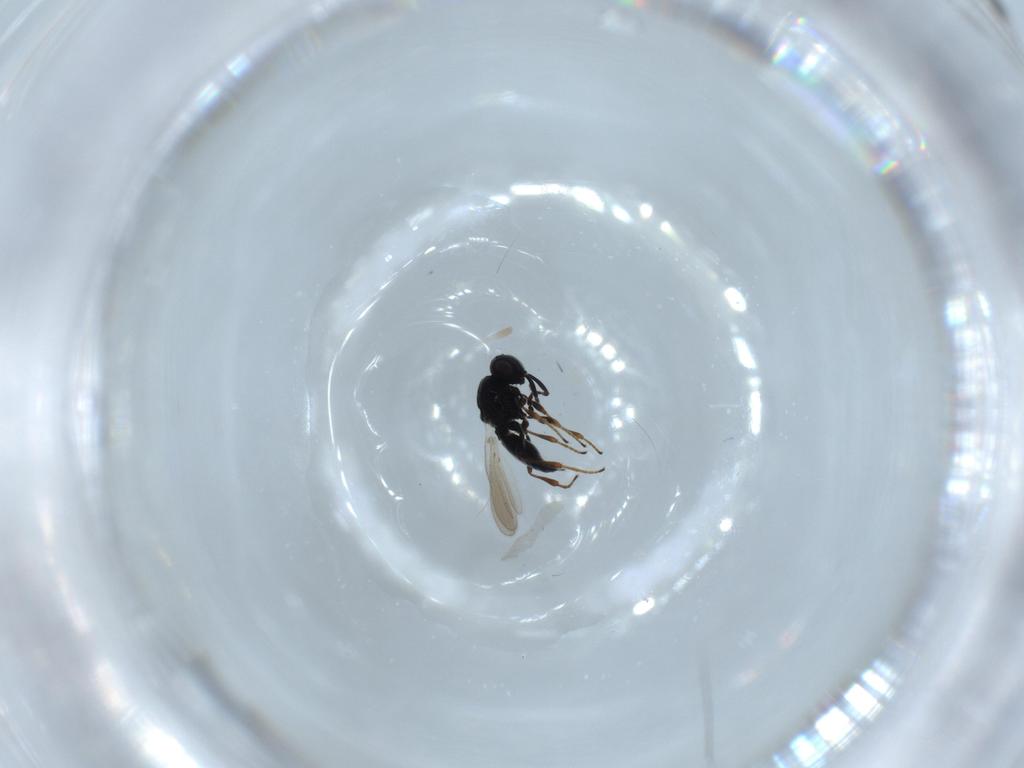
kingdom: Animalia
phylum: Arthropoda
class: Insecta
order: Hymenoptera
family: Platygastridae
